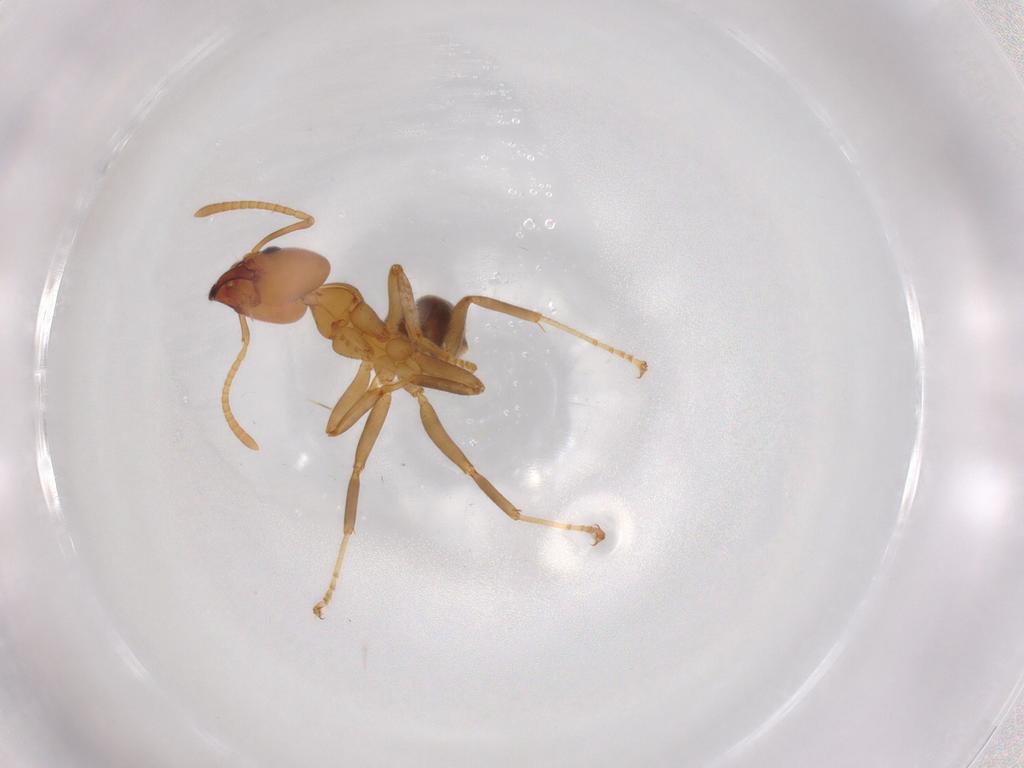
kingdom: Animalia
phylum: Arthropoda
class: Insecta
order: Hymenoptera
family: Formicidae
